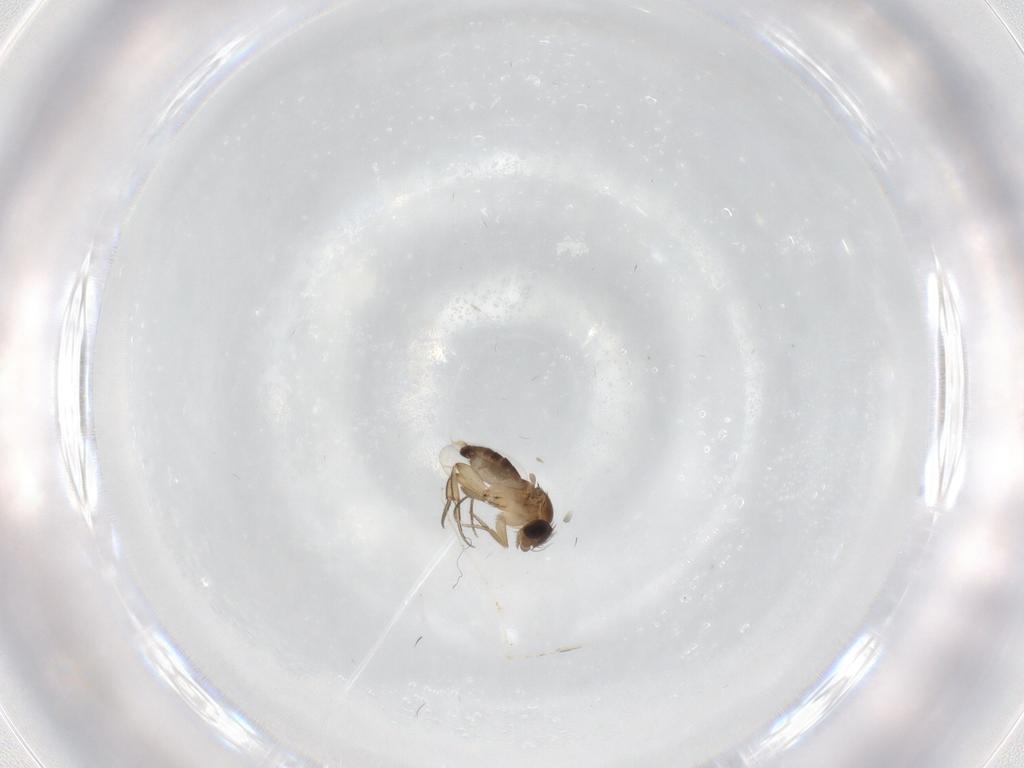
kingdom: Animalia
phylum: Arthropoda
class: Insecta
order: Diptera
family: Phoridae
